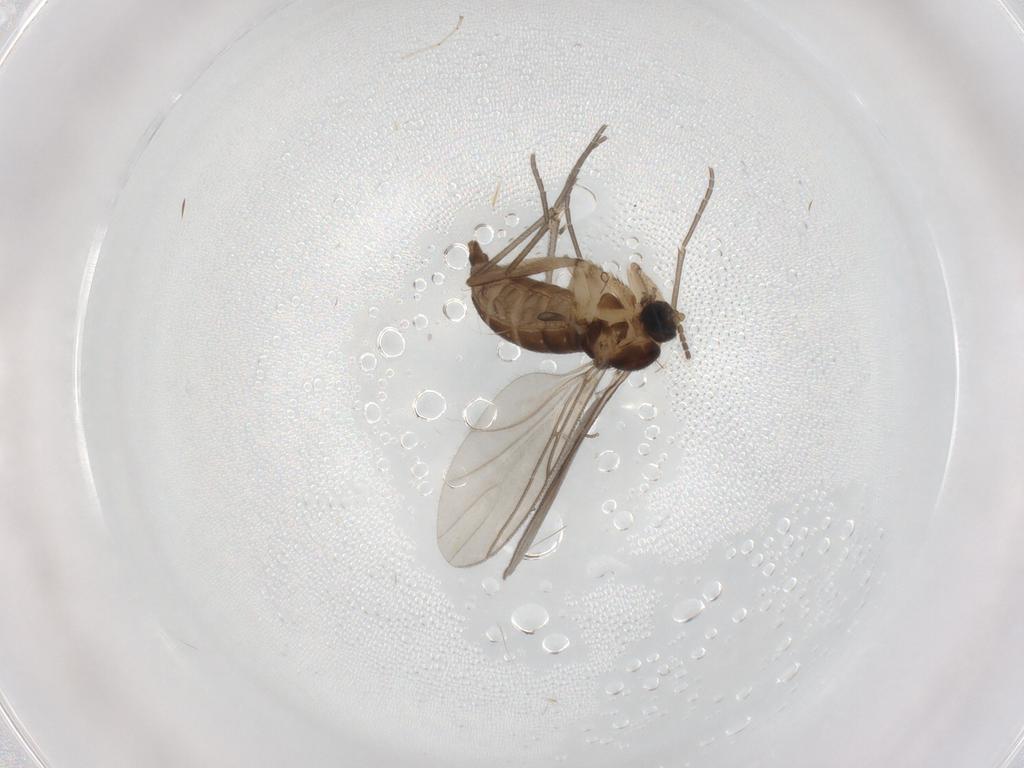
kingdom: Animalia
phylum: Arthropoda
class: Insecta
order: Diptera
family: Sciaridae
